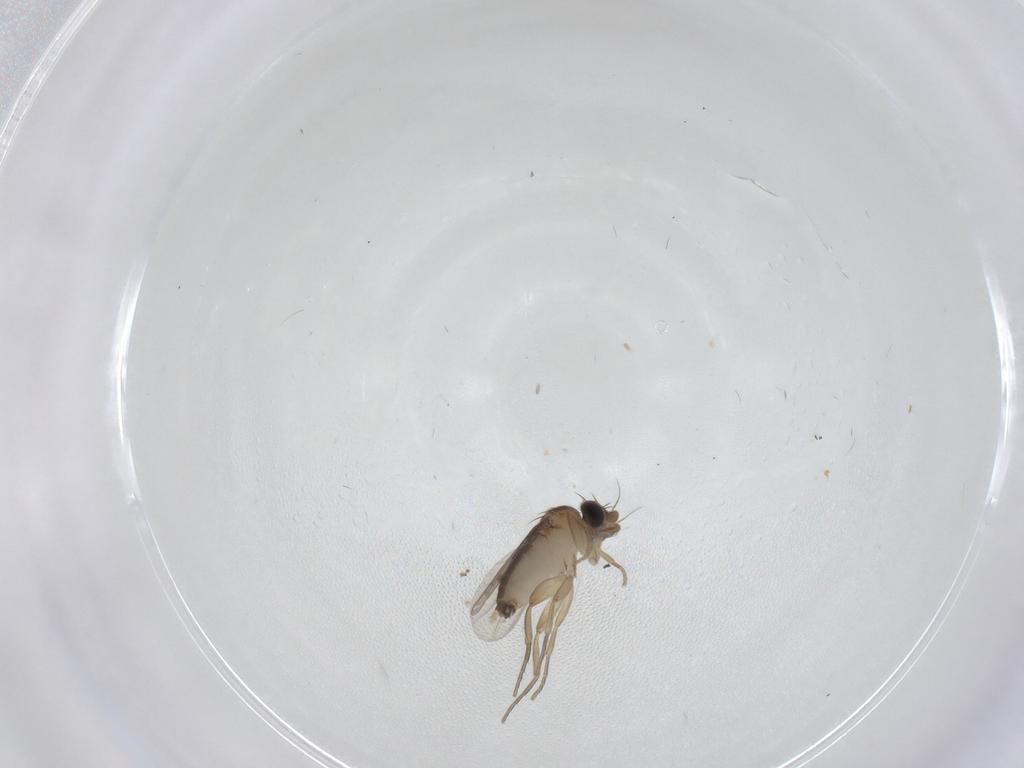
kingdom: Animalia
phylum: Arthropoda
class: Insecta
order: Diptera
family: Phoridae
